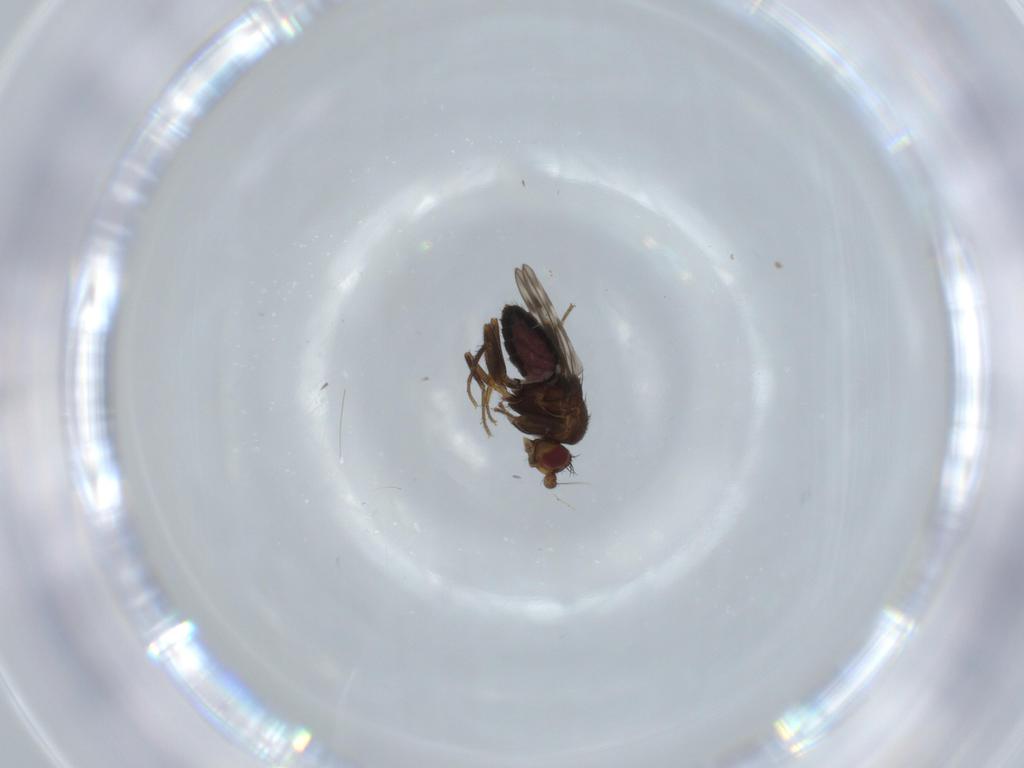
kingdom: Animalia
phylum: Arthropoda
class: Insecta
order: Diptera
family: Sphaeroceridae
